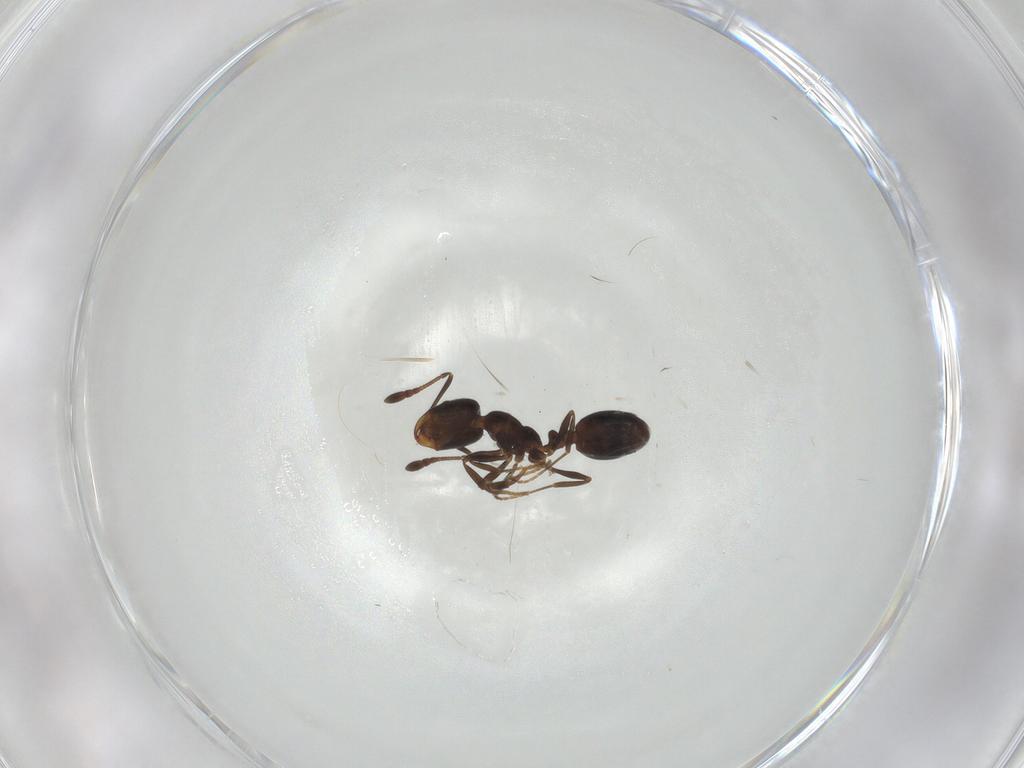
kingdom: Animalia
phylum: Arthropoda
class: Insecta
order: Hymenoptera
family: Formicidae
